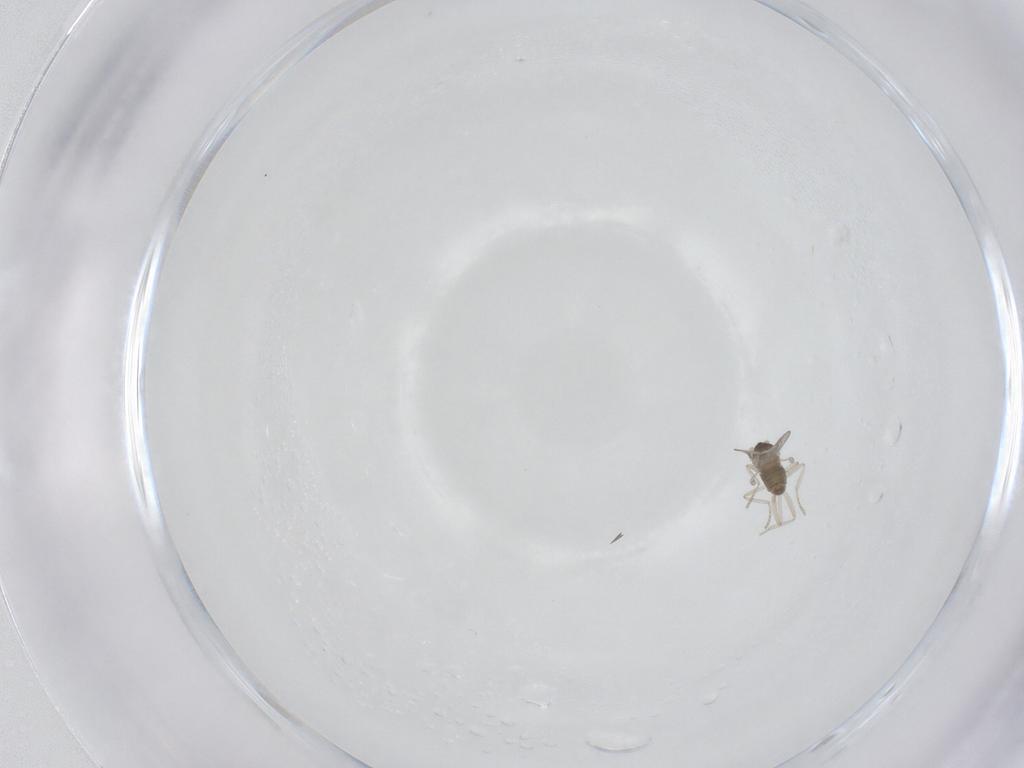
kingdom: Animalia
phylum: Arthropoda
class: Insecta
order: Diptera
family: Cecidomyiidae
